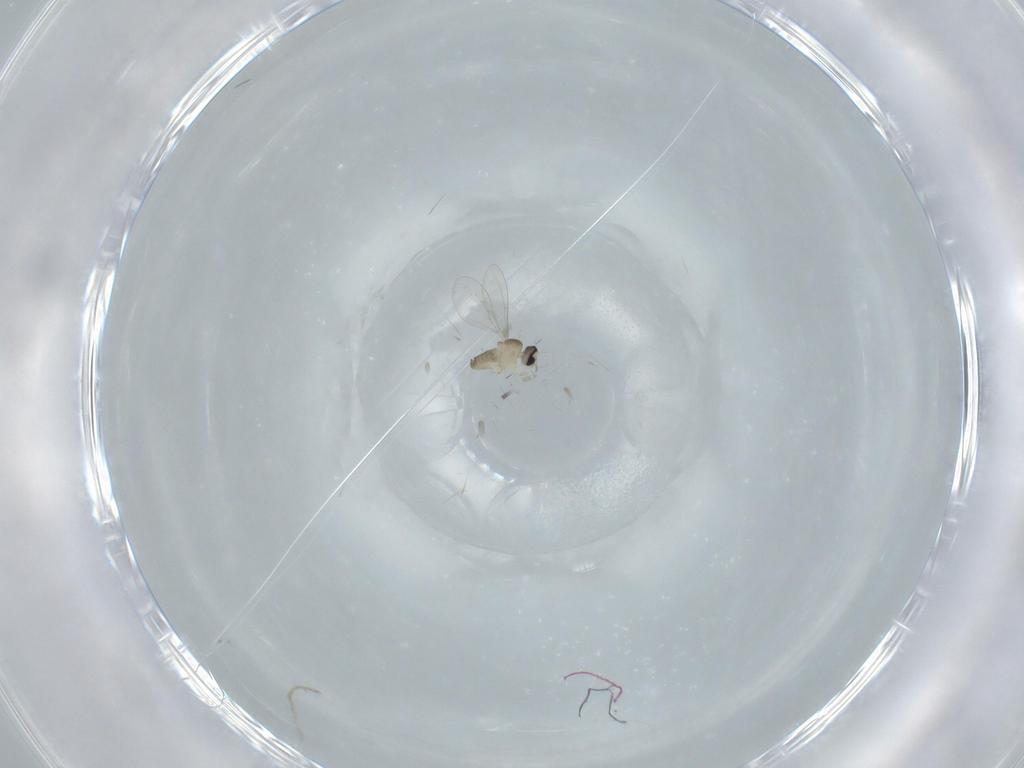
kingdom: Animalia
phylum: Arthropoda
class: Insecta
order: Diptera
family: Cecidomyiidae
